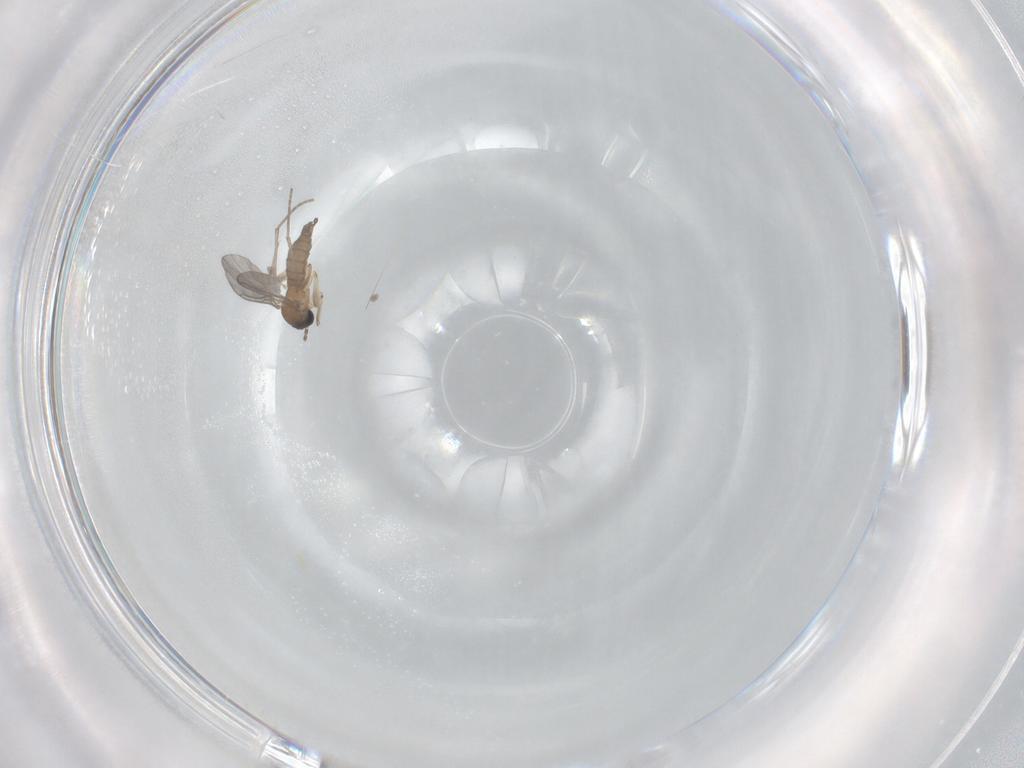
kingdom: Animalia
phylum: Arthropoda
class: Insecta
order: Diptera
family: Sciaridae
